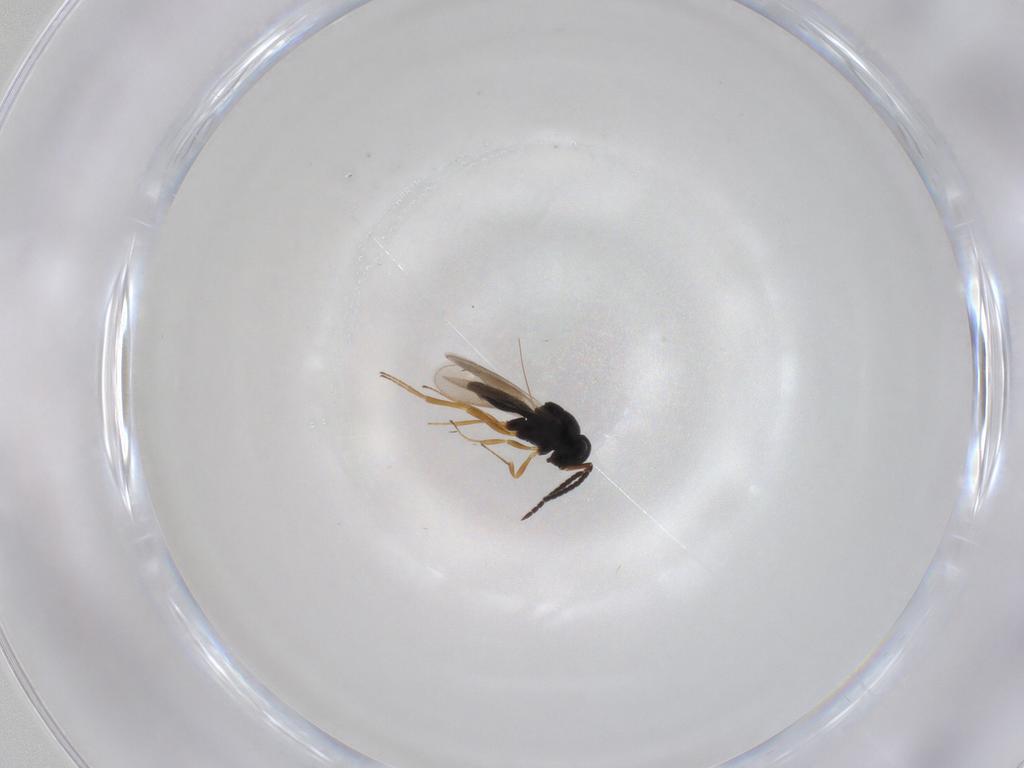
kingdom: Animalia
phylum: Arthropoda
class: Insecta
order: Hymenoptera
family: Scelionidae
